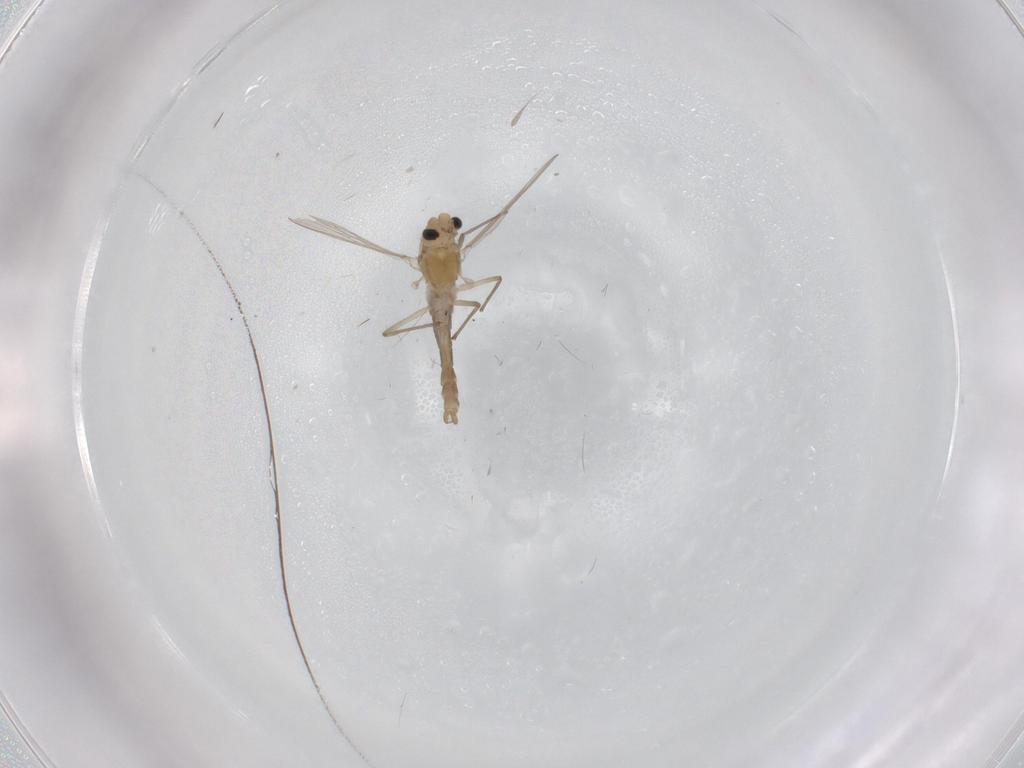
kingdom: Animalia
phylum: Arthropoda
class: Insecta
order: Diptera
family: Chironomidae
